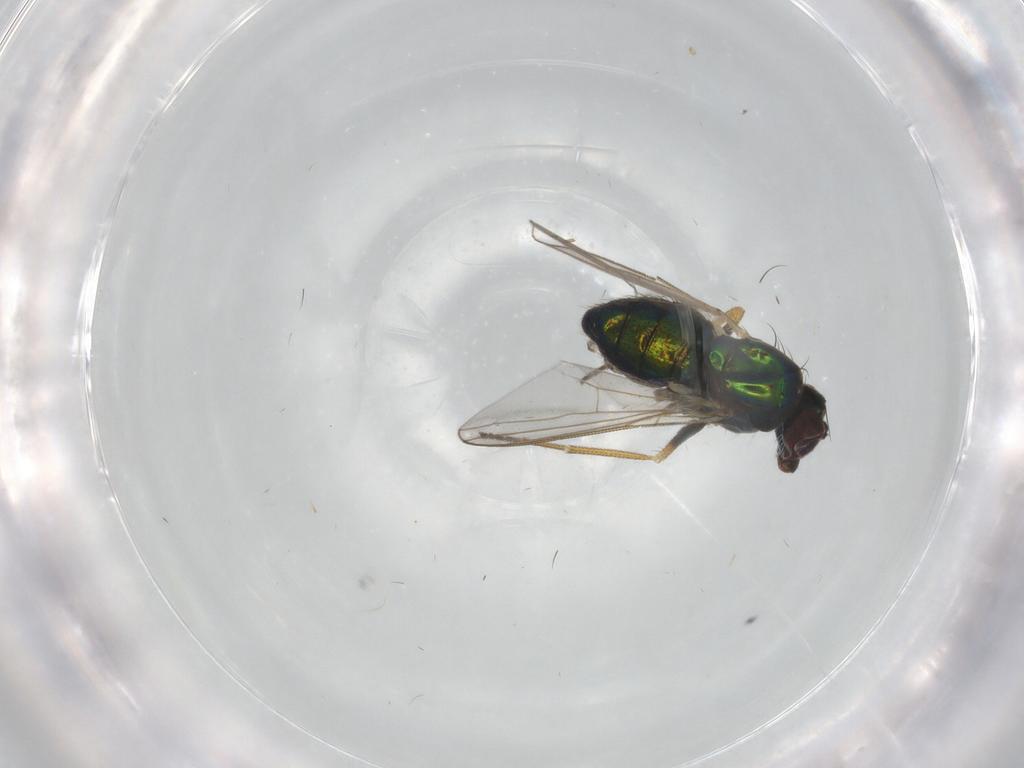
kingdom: Animalia
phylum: Arthropoda
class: Insecta
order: Diptera
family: Dolichopodidae
